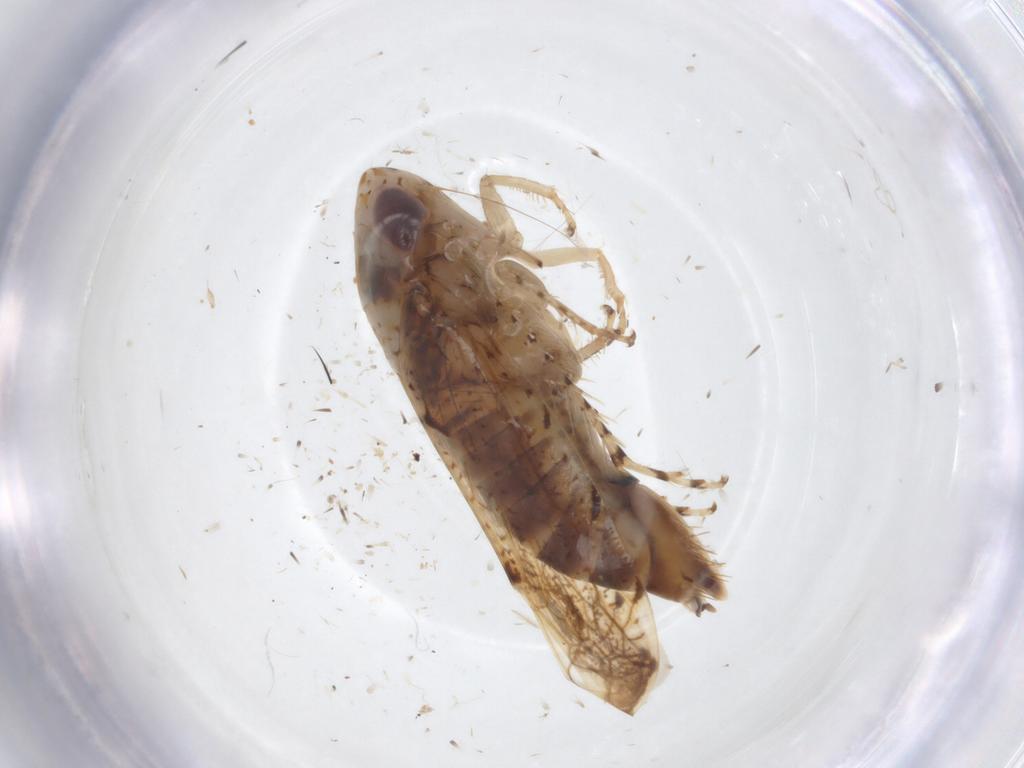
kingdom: Animalia
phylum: Arthropoda
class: Insecta
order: Hemiptera
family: Cicadellidae
